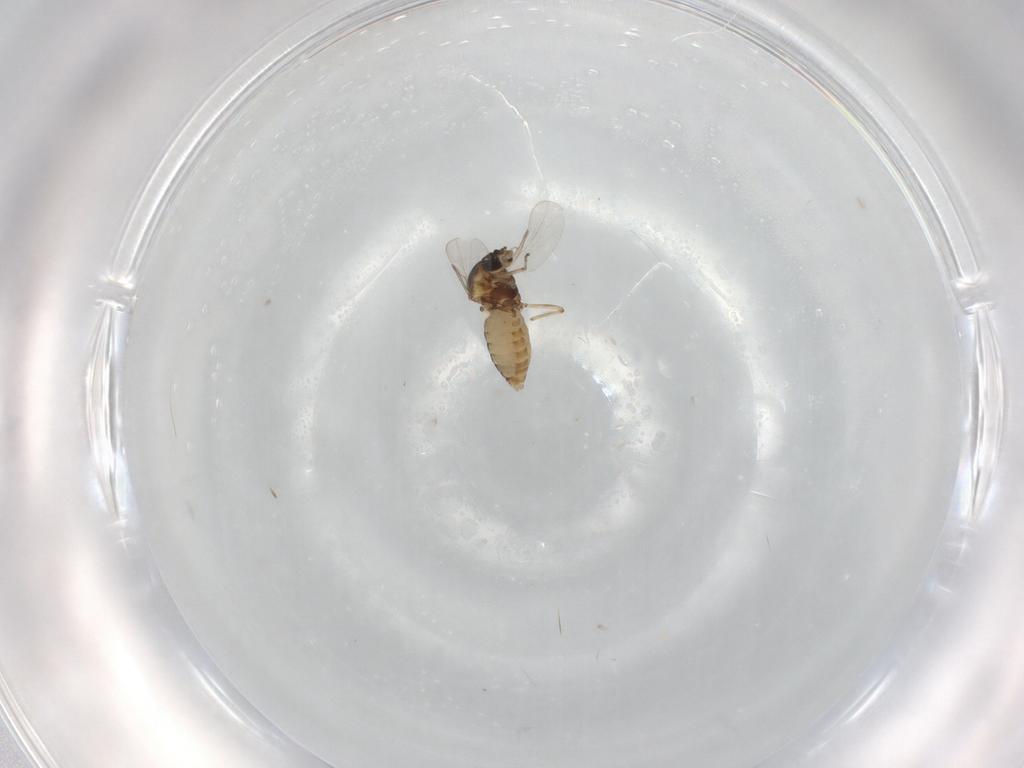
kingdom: Animalia
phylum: Arthropoda
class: Insecta
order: Diptera
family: Ceratopogonidae
